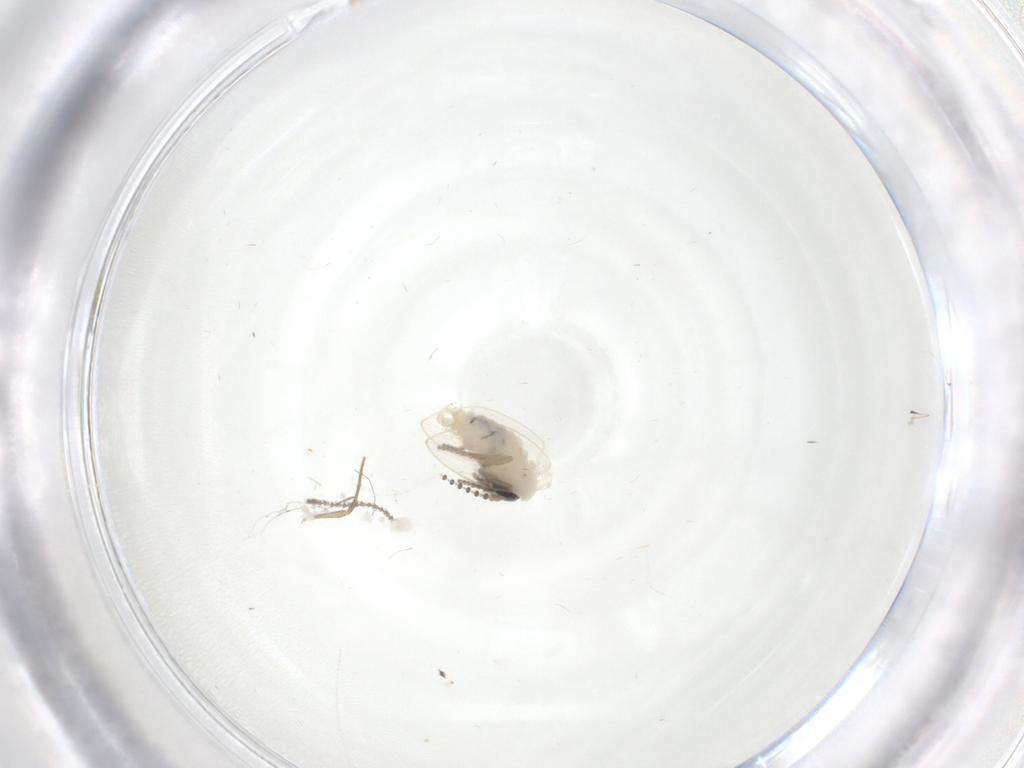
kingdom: Animalia
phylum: Arthropoda
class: Insecta
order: Diptera
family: Psychodidae
